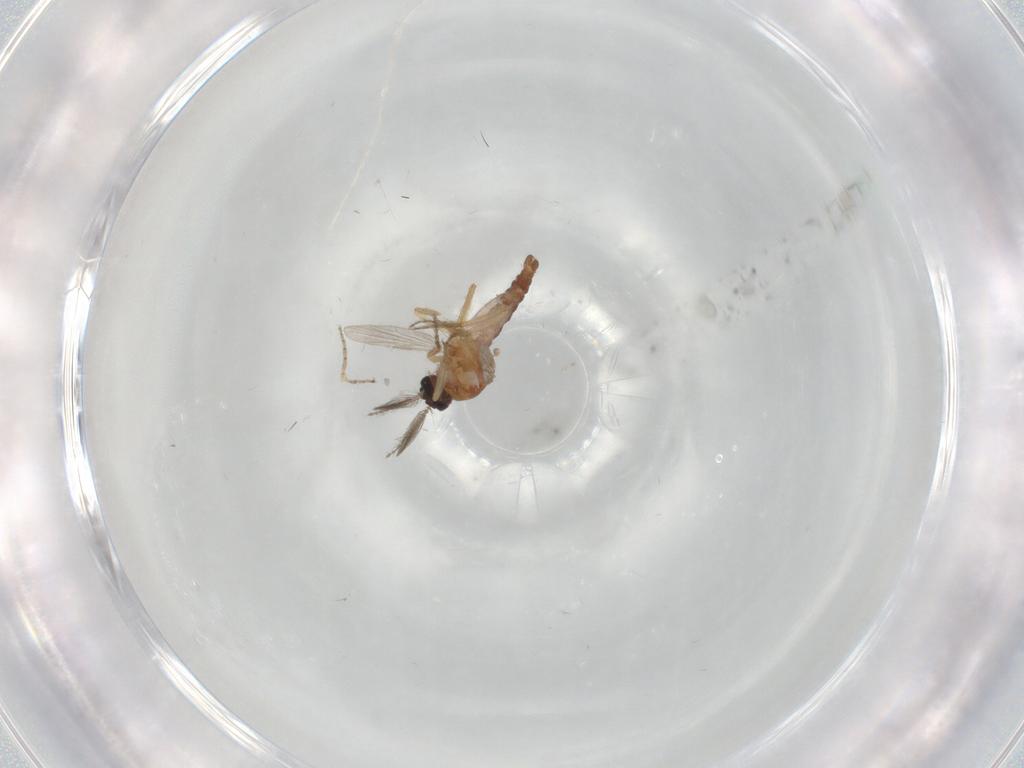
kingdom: Animalia
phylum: Arthropoda
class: Insecta
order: Diptera
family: Ceratopogonidae
